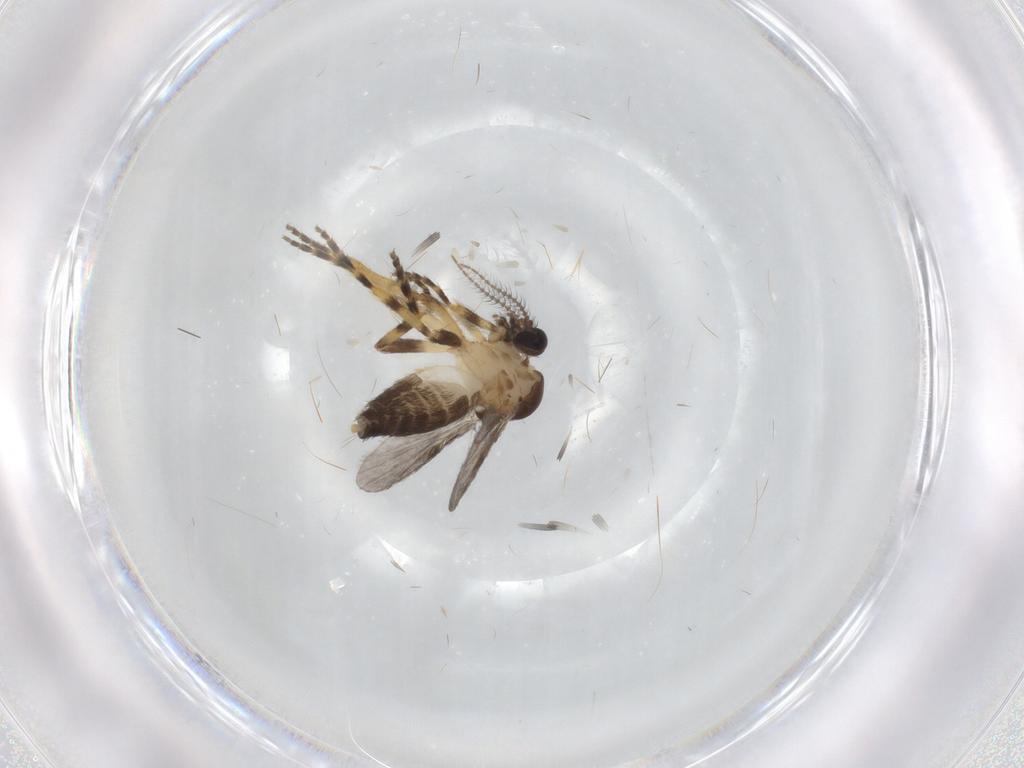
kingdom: Animalia
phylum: Arthropoda
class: Insecta
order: Diptera
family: Ceratopogonidae
